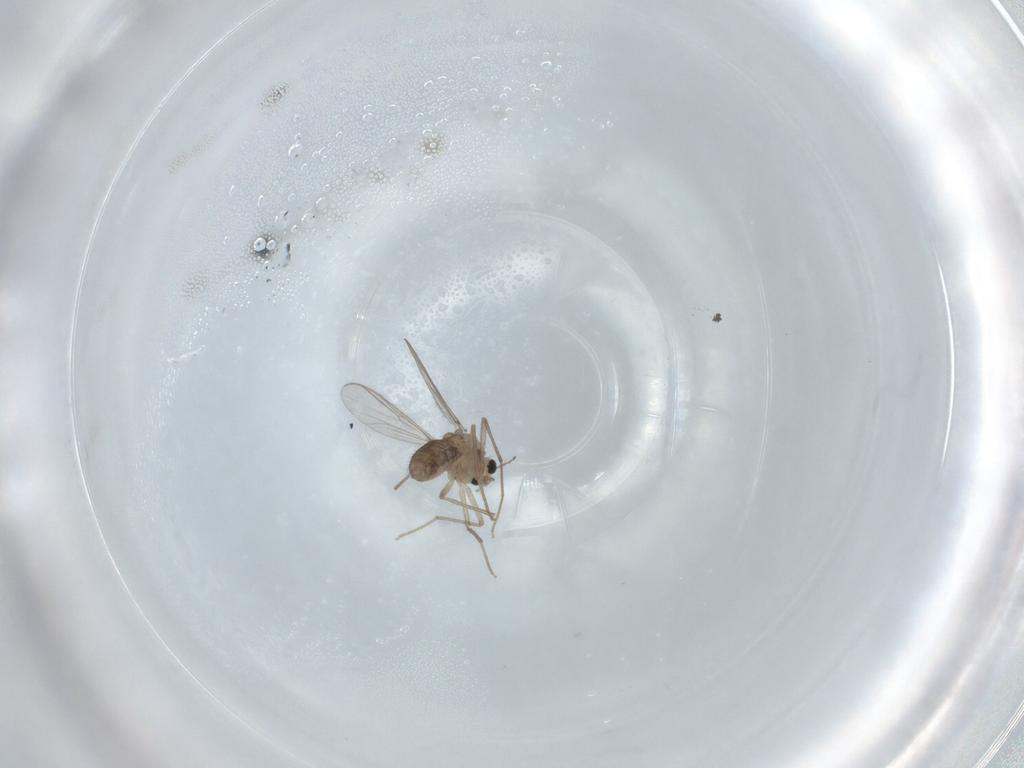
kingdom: Animalia
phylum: Arthropoda
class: Insecta
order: Diptera
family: Chironomidae
